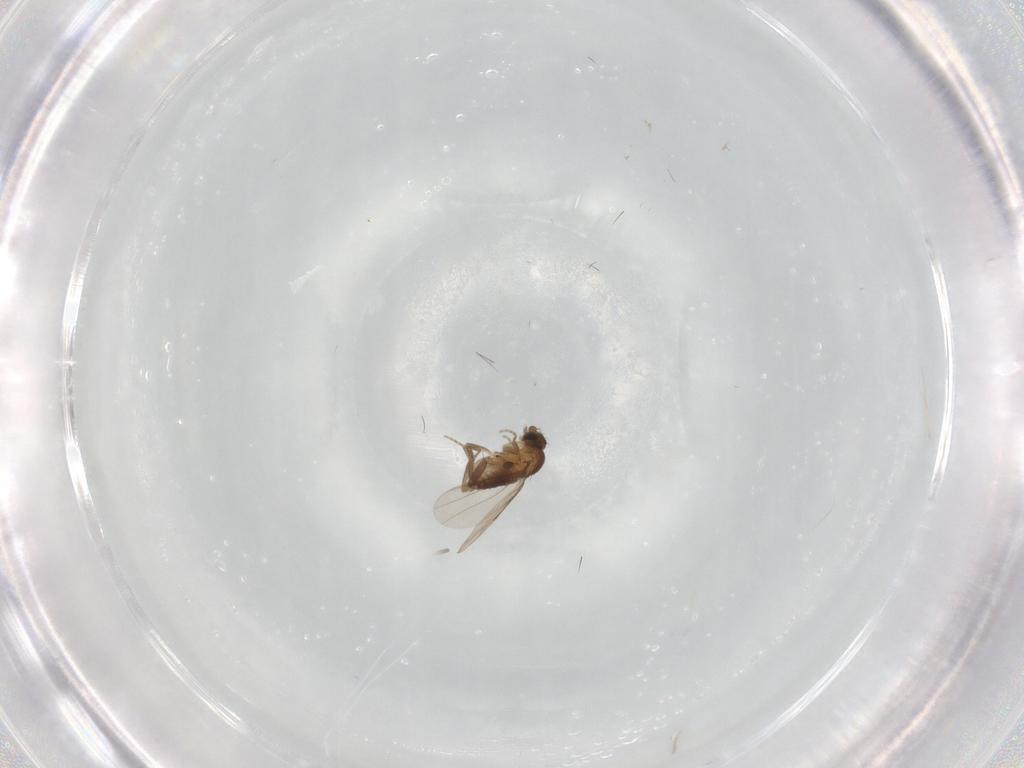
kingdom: Animalia
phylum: Arthropoda
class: Insecta
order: Diptera
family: Phoridae
